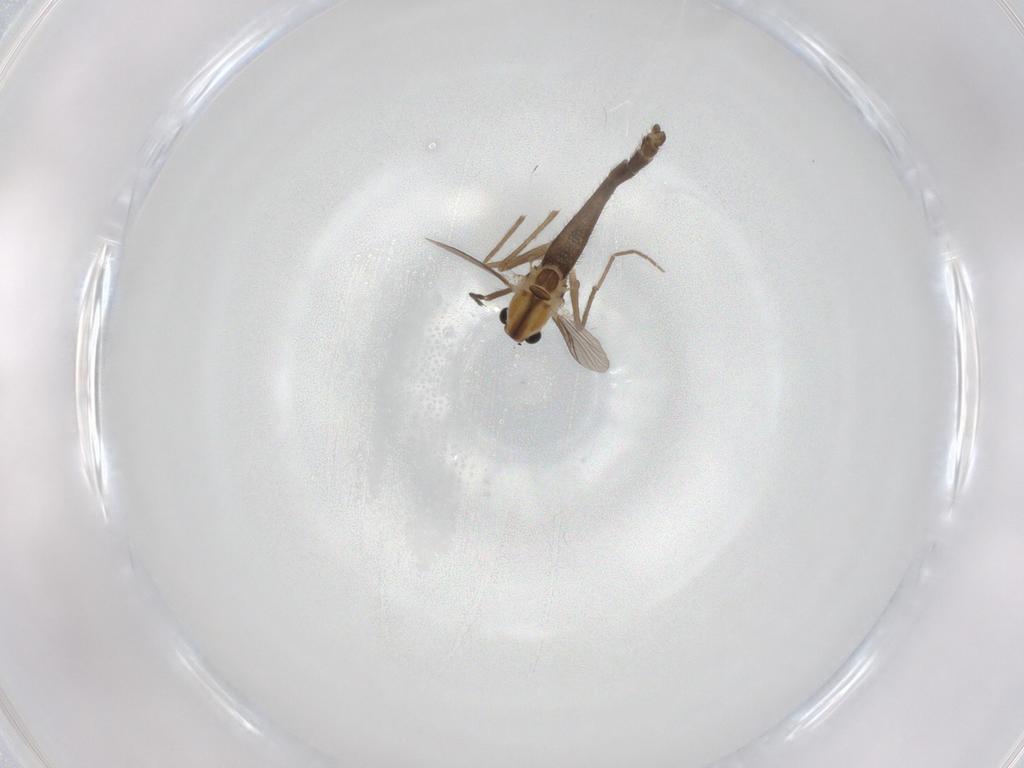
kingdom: Animalia
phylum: Arthropoda
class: Insecta
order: Diptera
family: Chironomidae
